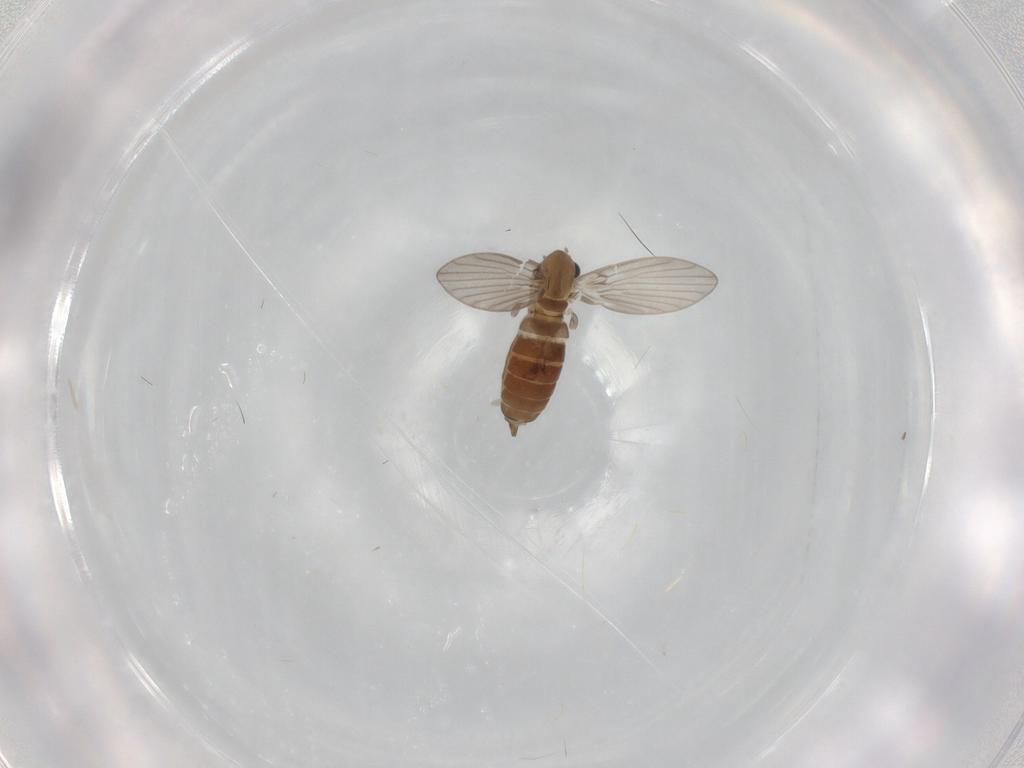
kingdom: Animalia
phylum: Arthropoda
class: Insecta
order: Diptera
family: Psychodidae
